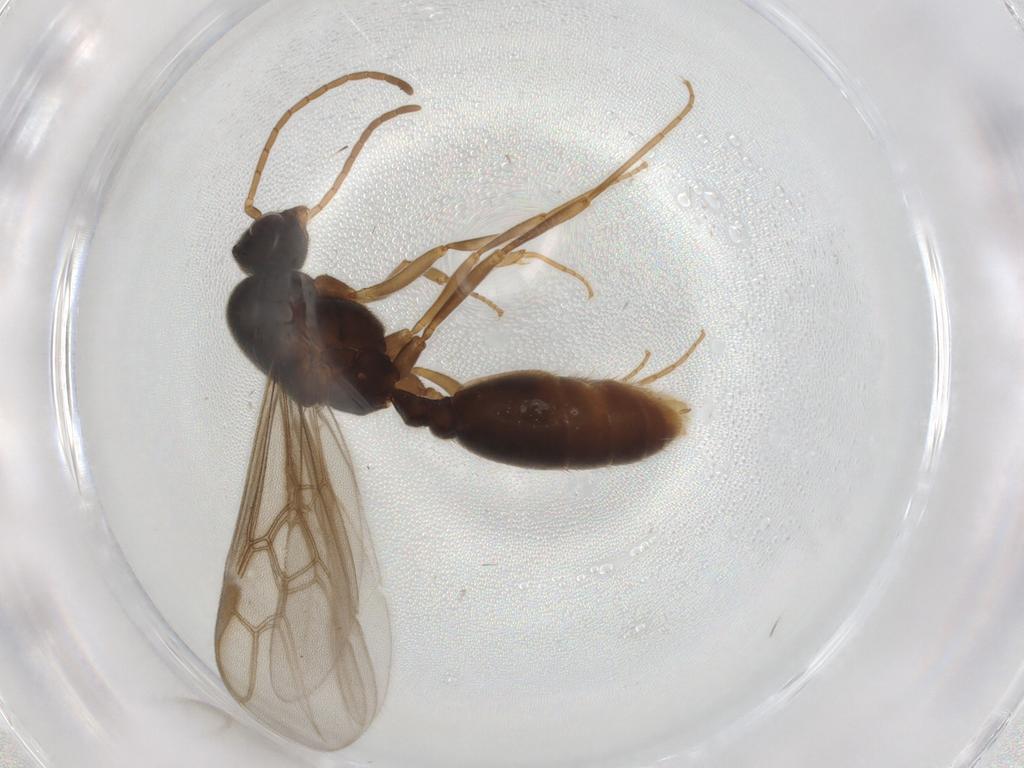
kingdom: Animalia
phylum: Arthropoda
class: Insecta
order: Hymenoptera
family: Formicidae
